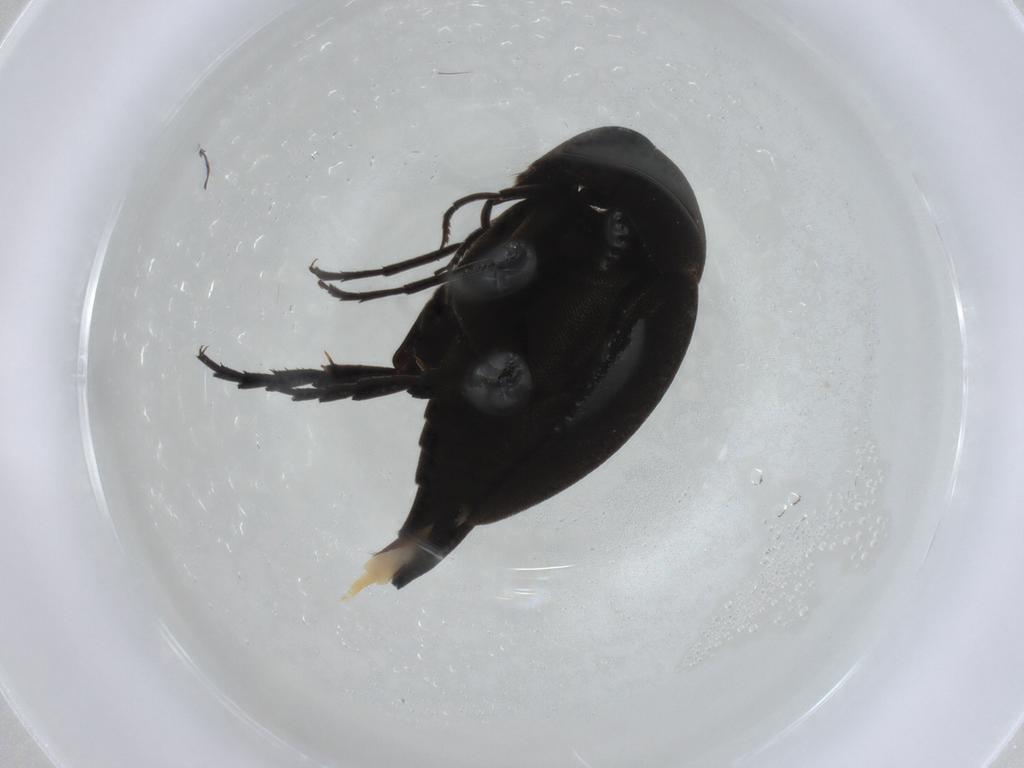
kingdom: Animalia
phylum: Arthropoda
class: Insecta
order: Coleoptera
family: Mordellidae
